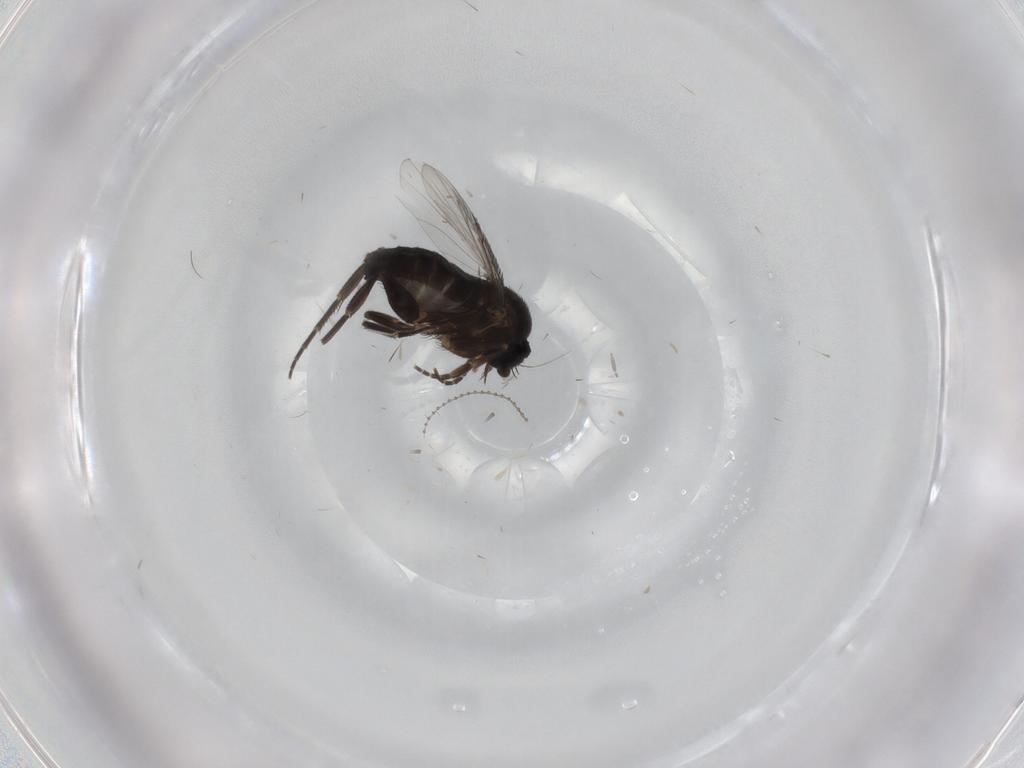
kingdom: Animalia
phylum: Arthropoda
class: Insecta
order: Diptera
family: Phoridae
